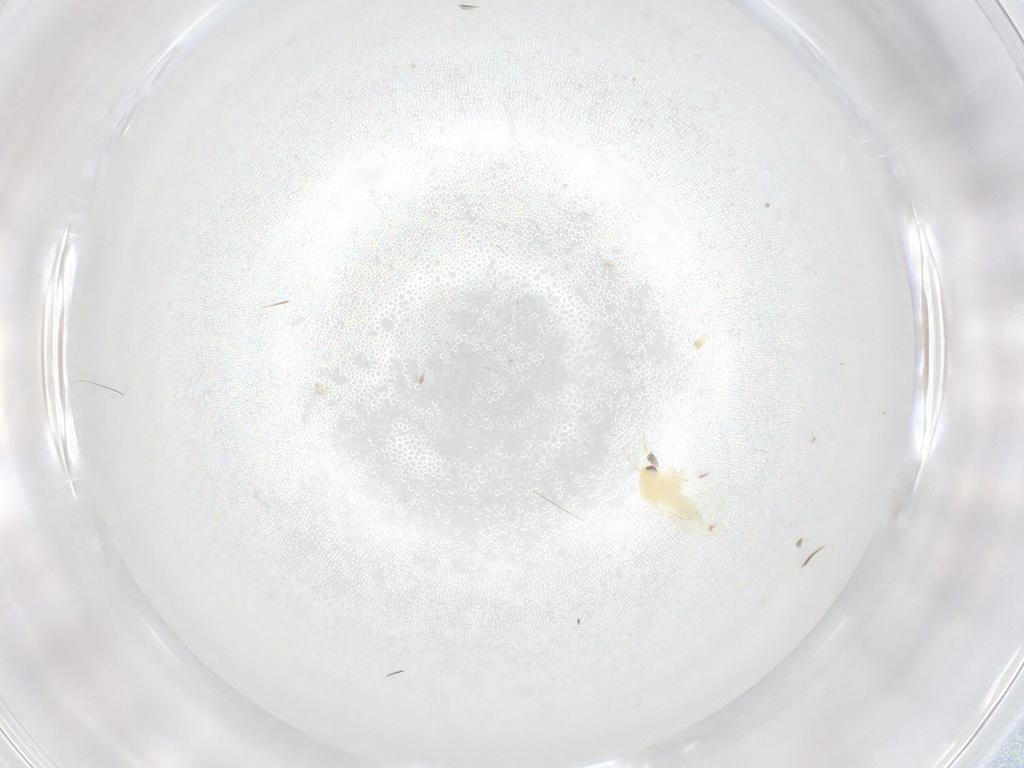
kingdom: Animalia
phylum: Arthropoda
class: Insecta
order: Hemiptera
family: Aleyrodidae
